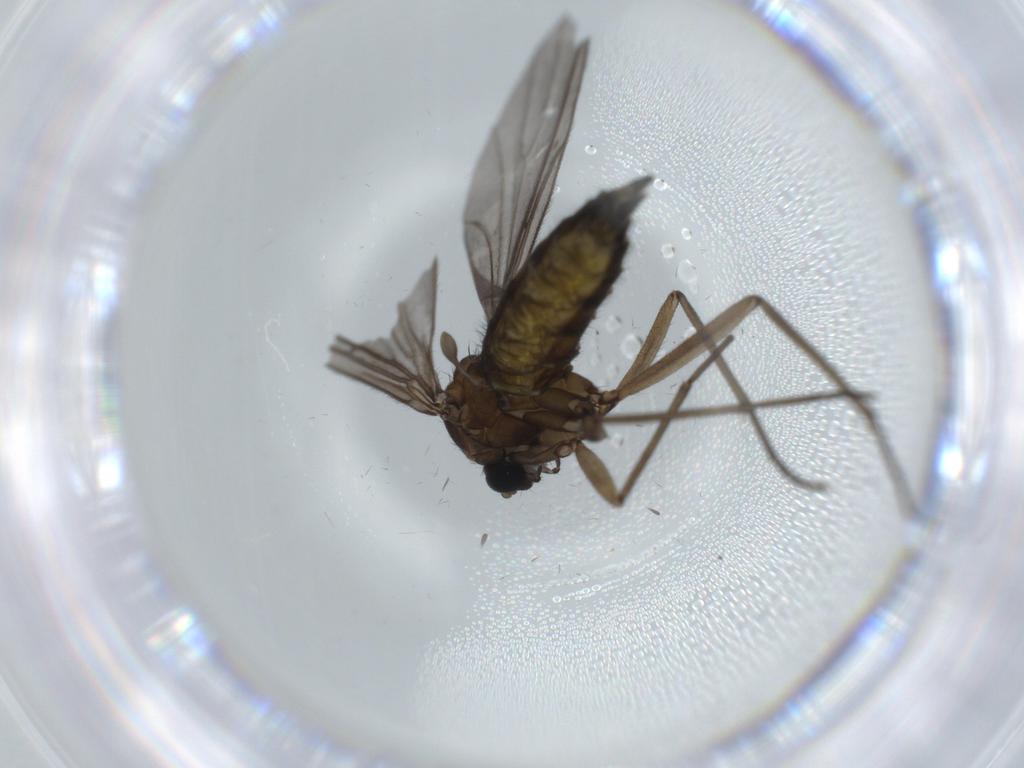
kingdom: Animalia
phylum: Arthropoda
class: Insecta
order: Diptera
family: Sciaridae
